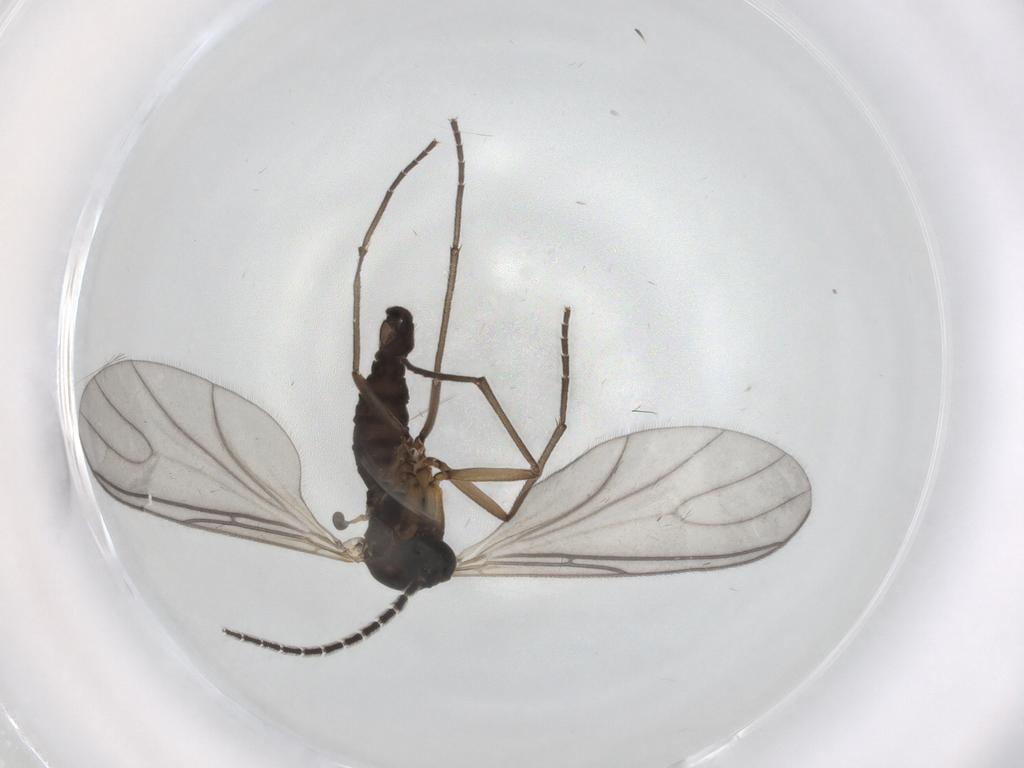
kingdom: Animalia
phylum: Arthropoda
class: Insecta
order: Diptera
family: Sciaridae
